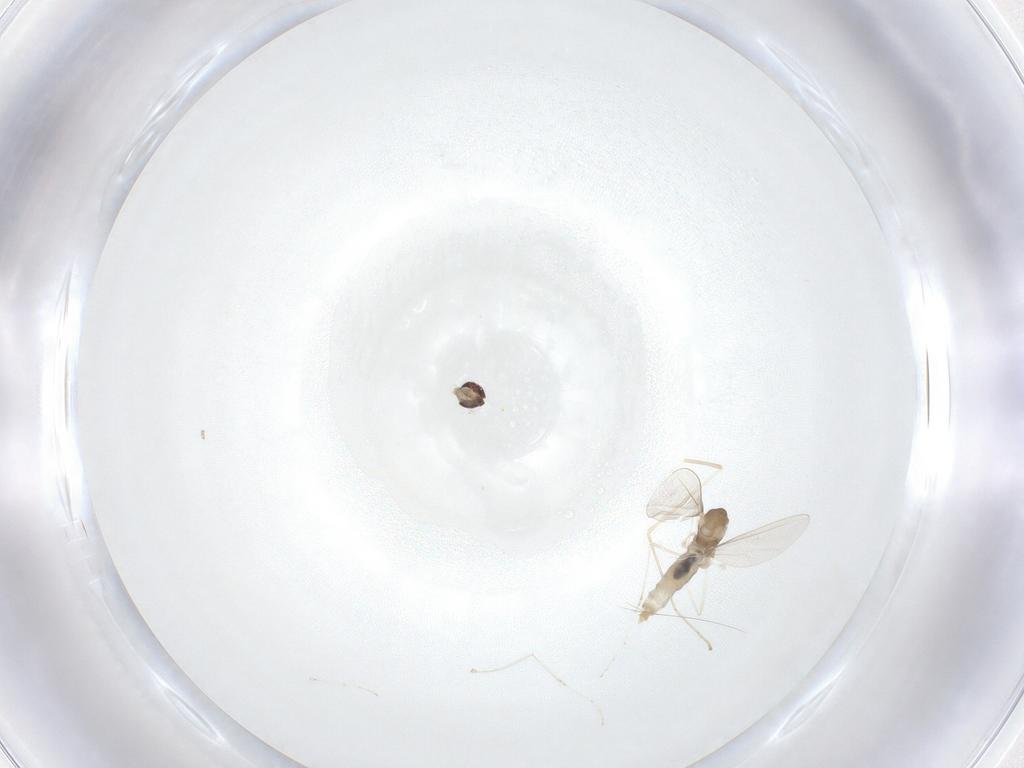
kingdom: Animalia
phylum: Arthropoda
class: Insecta
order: Diptera
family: Cecidomyiidae
